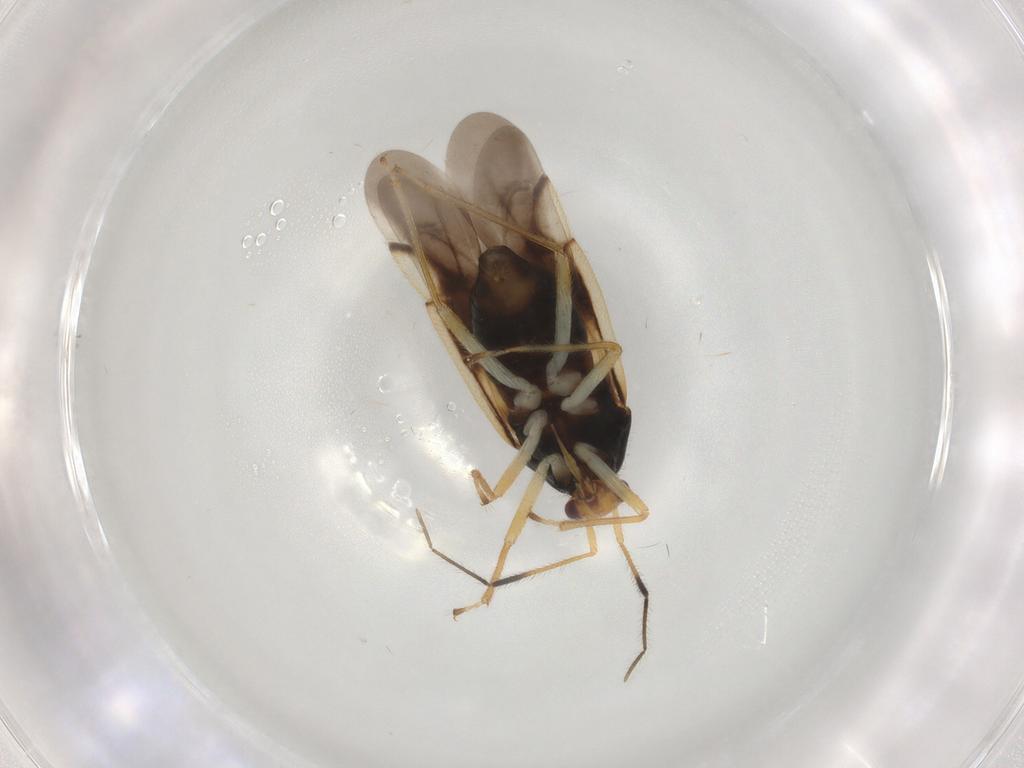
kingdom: Animalia
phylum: Arthropoda
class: Insecta
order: Hemiptera
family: Miridae
